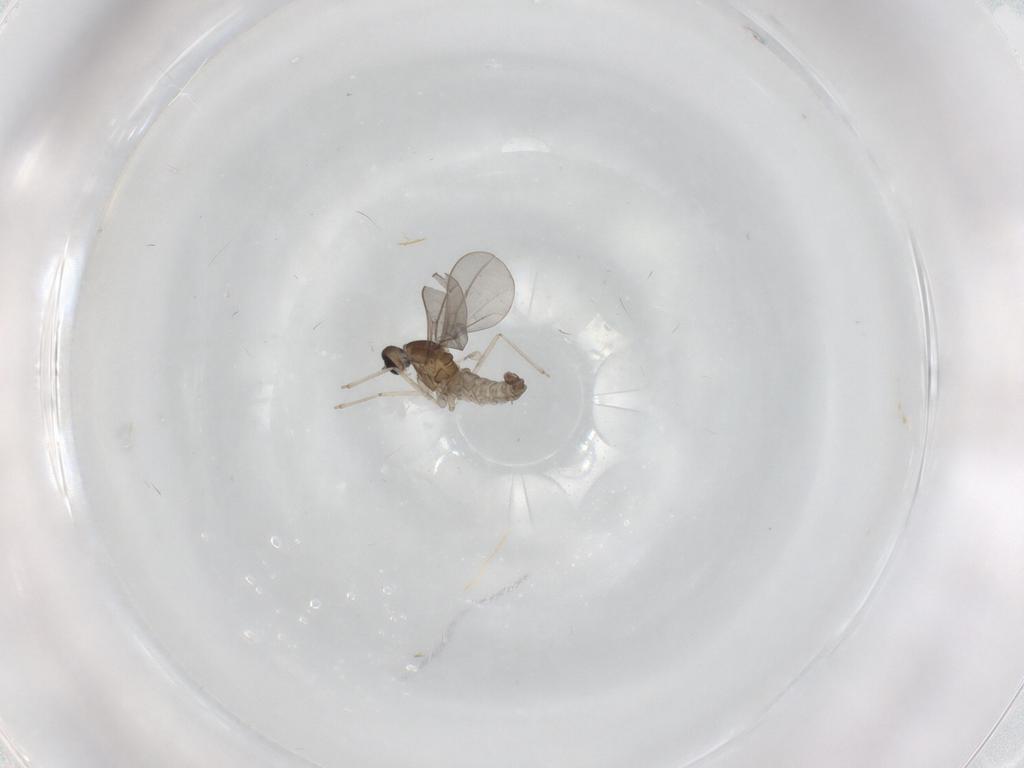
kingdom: Animalia
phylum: Arthropoda
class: Insecta
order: Diptera
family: Cecidomyiidae
